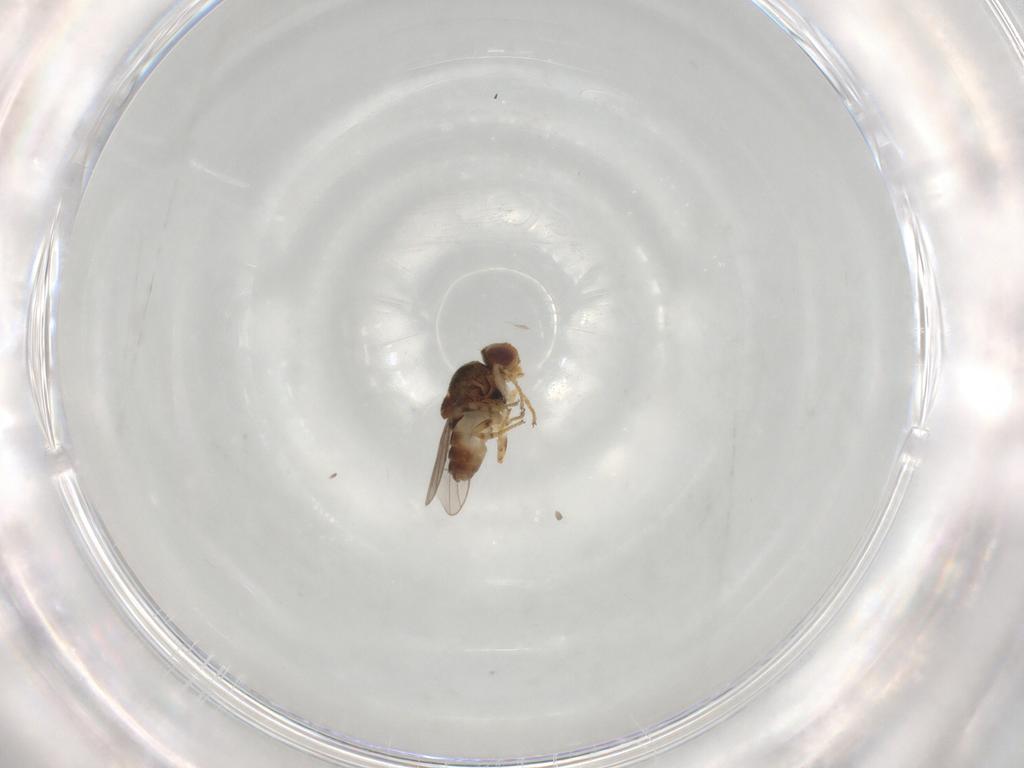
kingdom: Animalia
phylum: Arthropoda
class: Insecta
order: Diptera
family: Chloropidae
